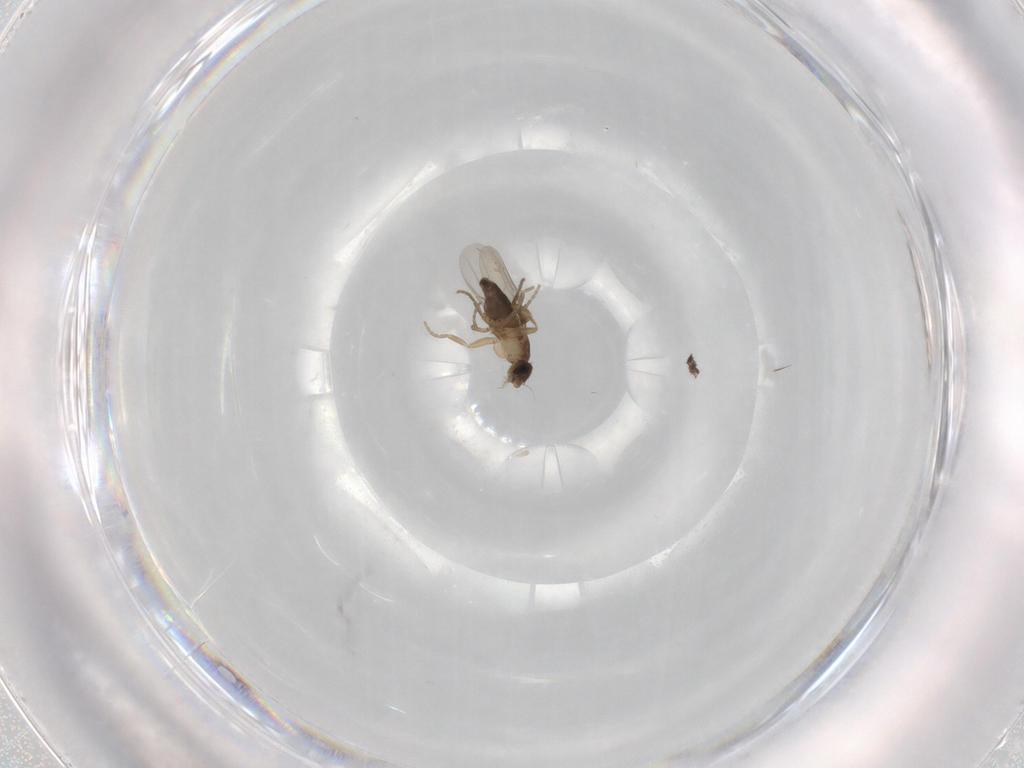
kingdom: Animalia
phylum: Arthropoda
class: Insecta
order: Diptera
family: Phoridae
